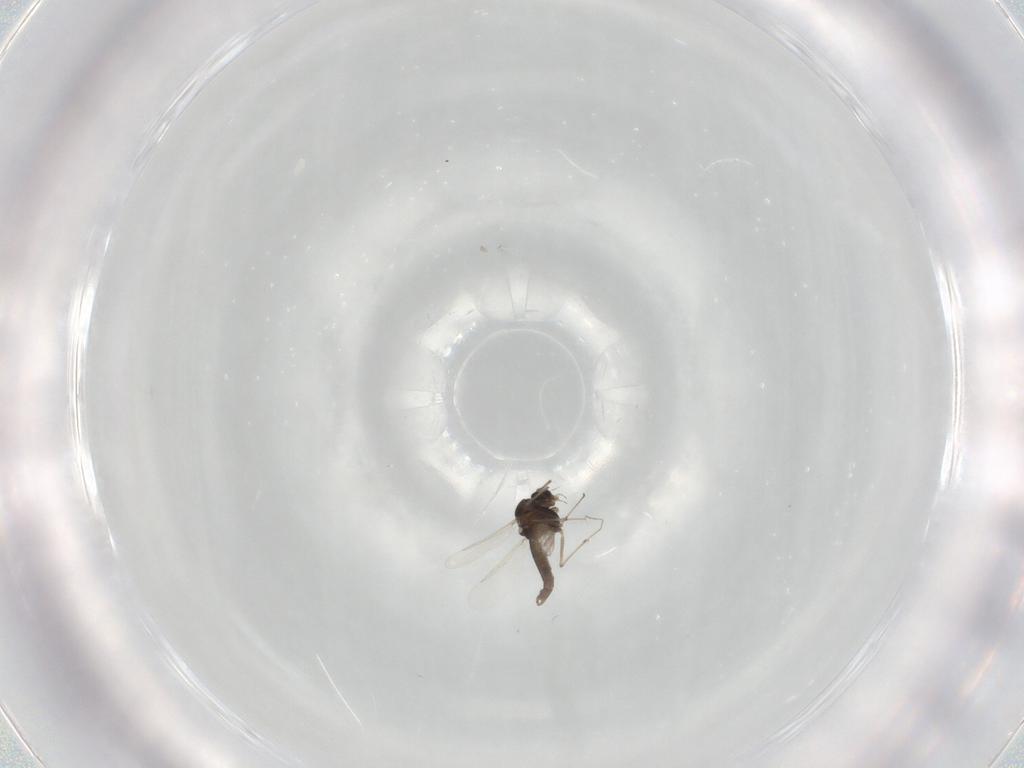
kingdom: Animalia
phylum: Arthropoda
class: Insecta
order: Diptera
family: Chironomidae
